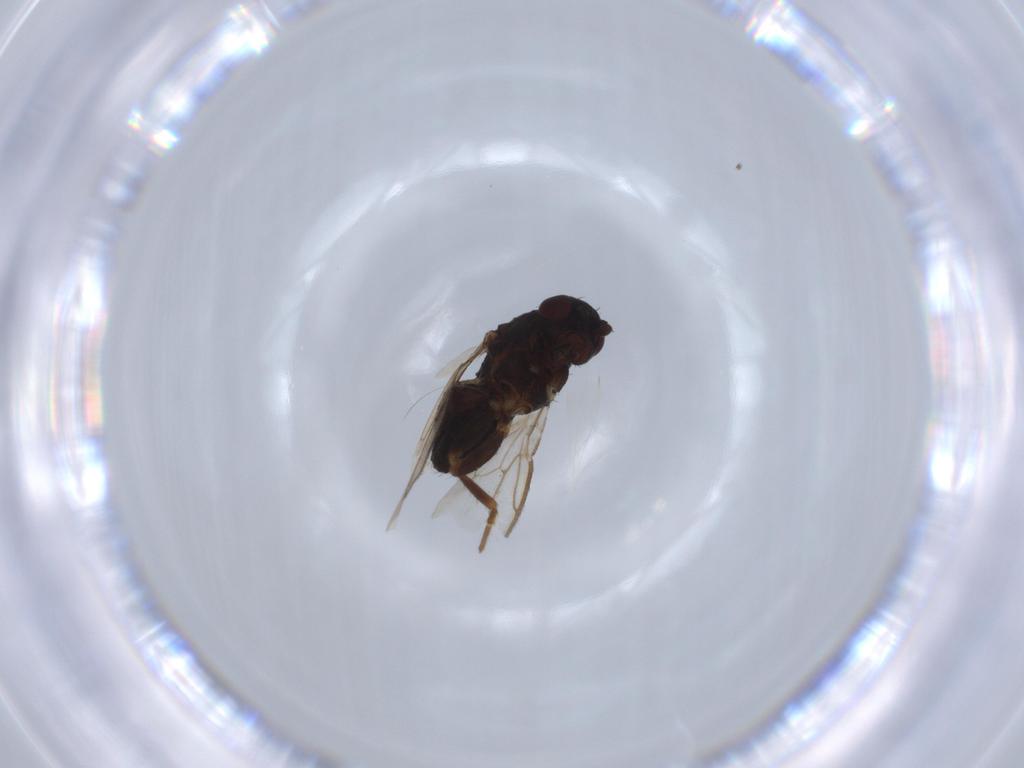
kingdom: Animalia
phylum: Arthropoda
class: Insecta
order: Diptera
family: Sphaeroceridae
